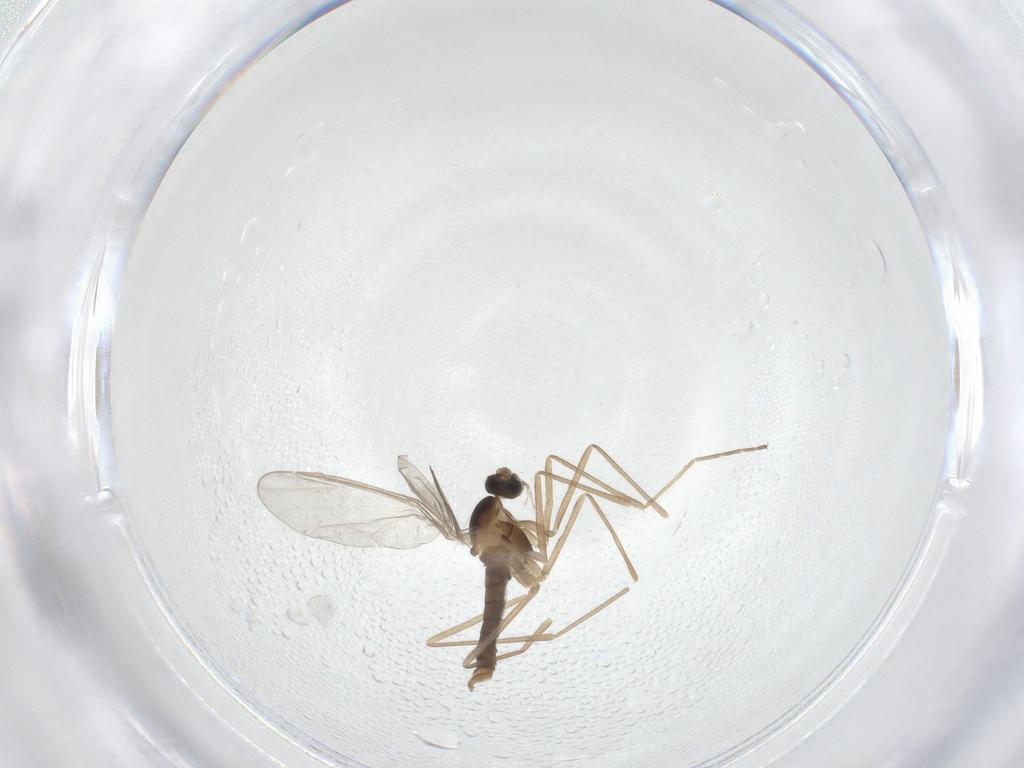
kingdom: Animalia
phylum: Arthropoda
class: Insecta
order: Diptera
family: Cecidomyiidae
